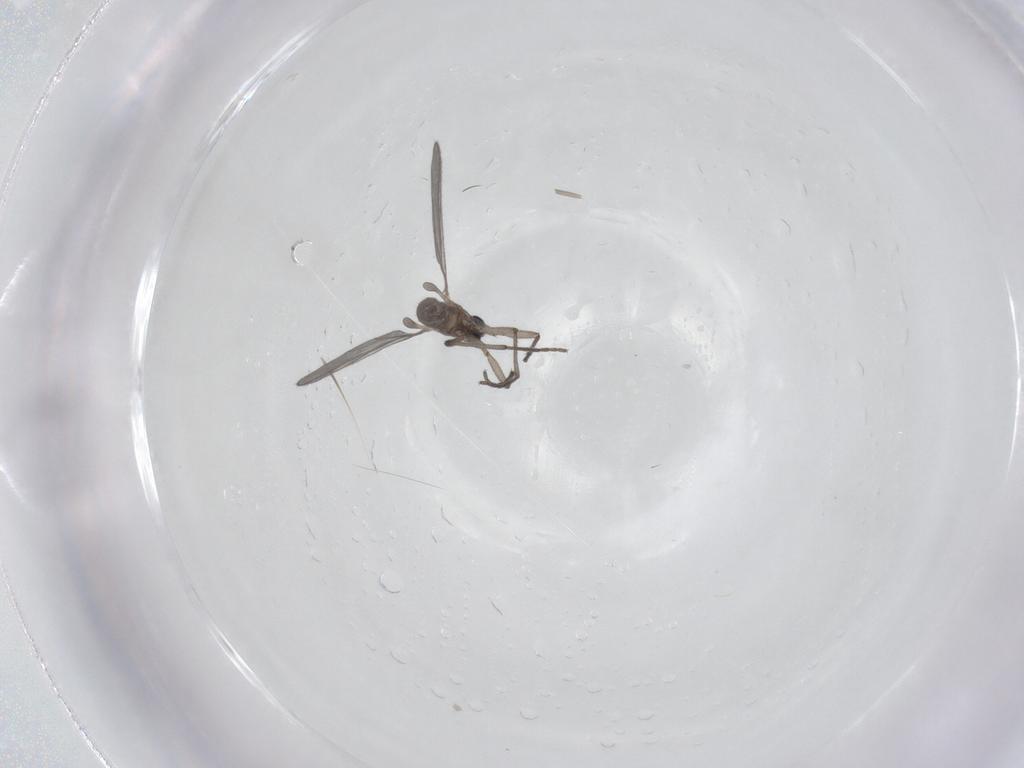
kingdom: Animalia
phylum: Arthropoda
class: Insecta
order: Diptera
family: Sciaridae
